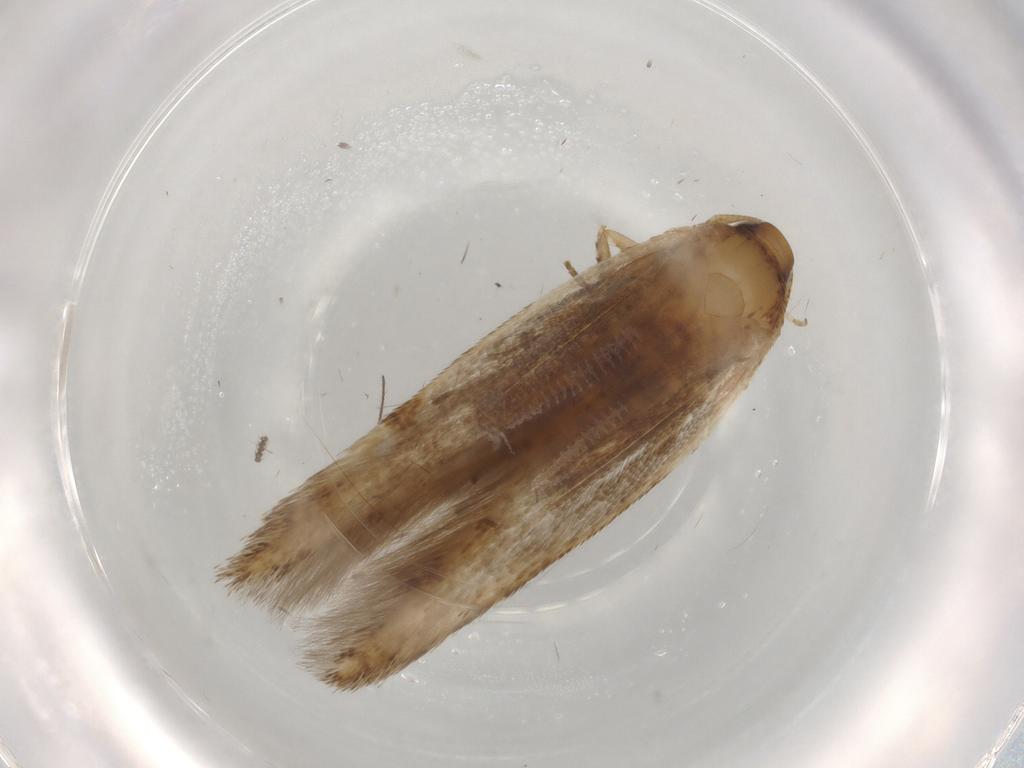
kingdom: Animalia
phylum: Arthropoda
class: Insecta
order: Lepidoptera
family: Cosmopterigidae
